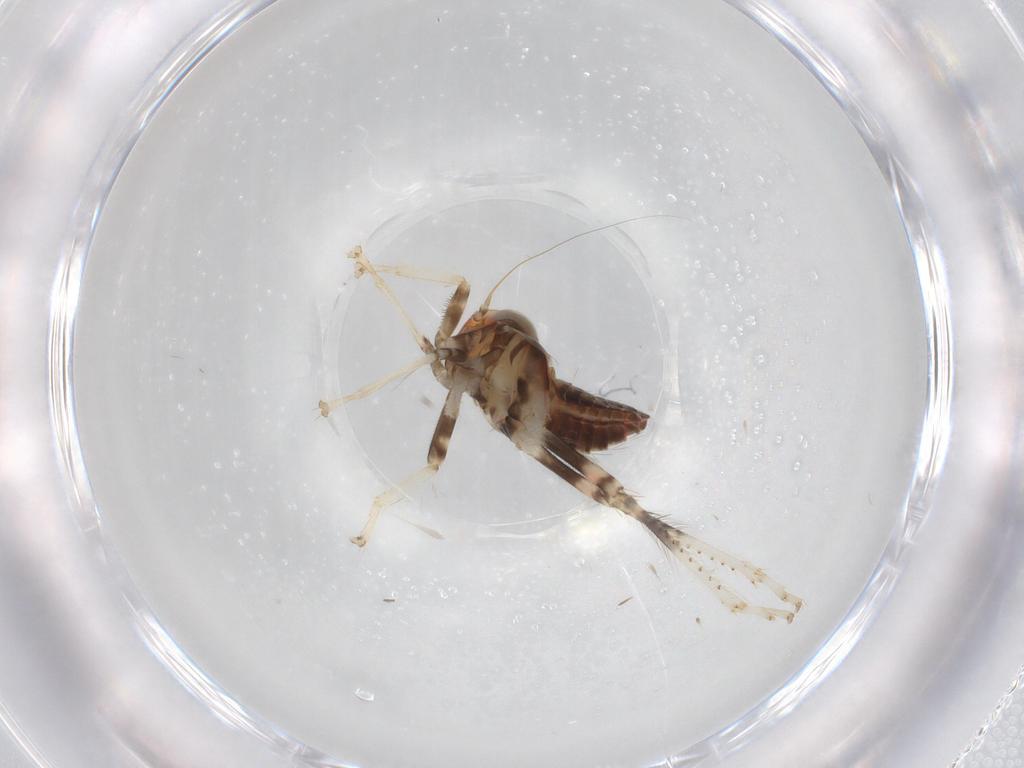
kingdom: Animalia
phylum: Arthropoda
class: Insecta
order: Hemiptera
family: Cicadellidae
